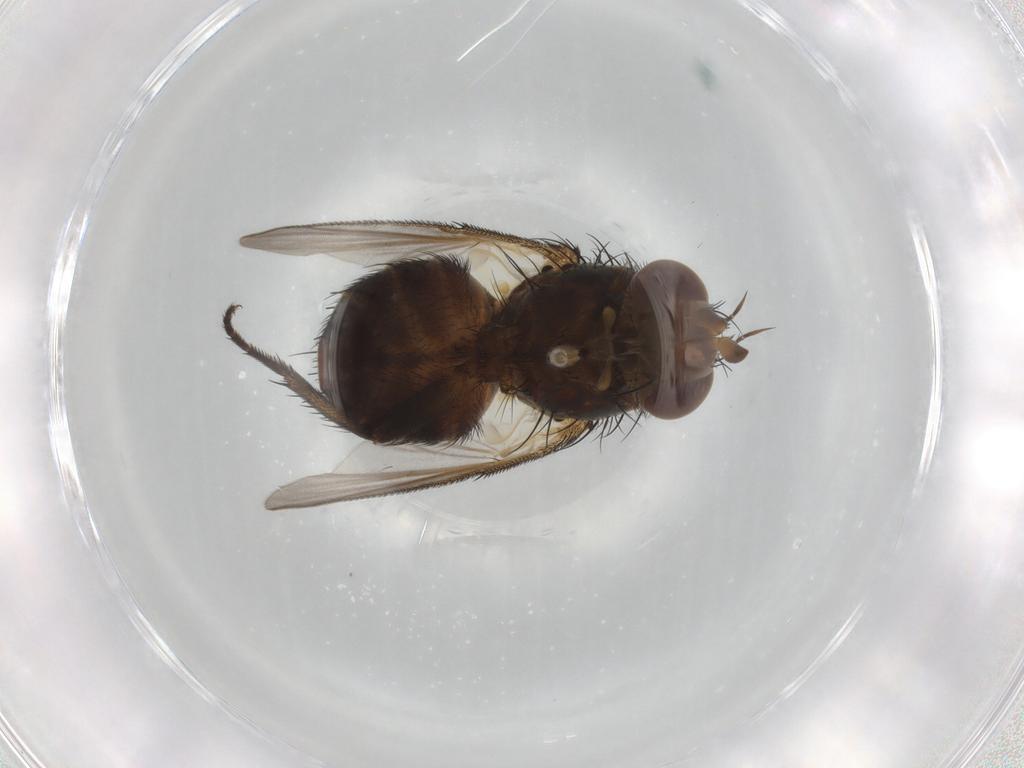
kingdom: Animalia
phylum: Arthropoda
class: Insecta
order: Diptera
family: Tachinidae
